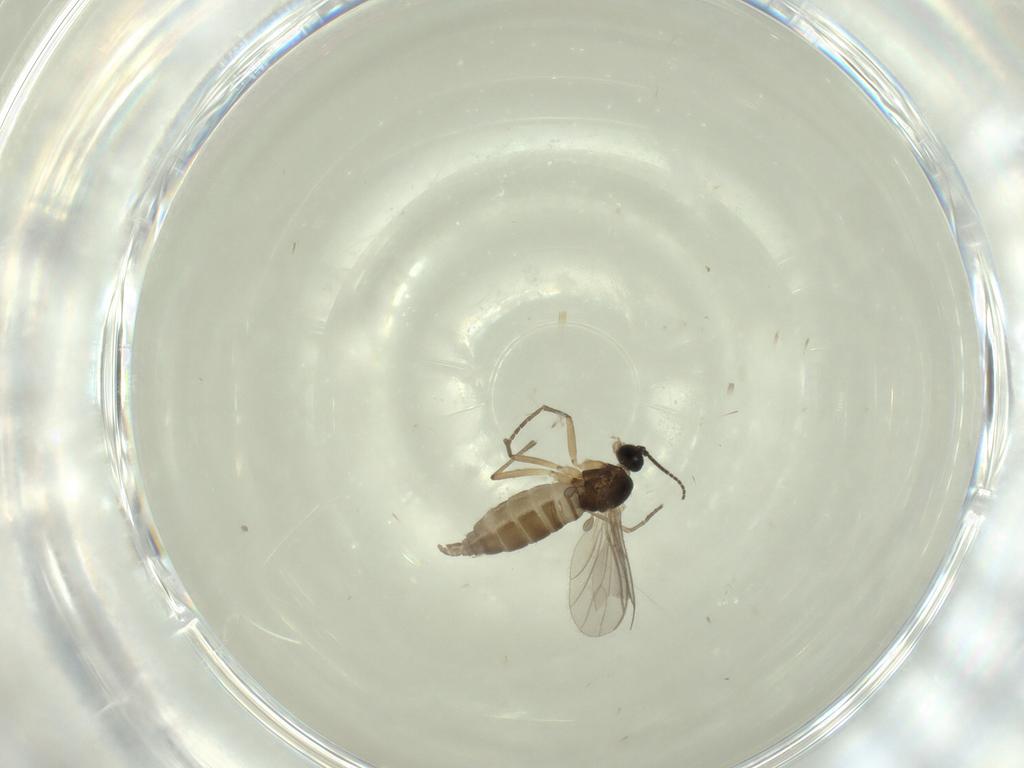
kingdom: Animalia
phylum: Arthropoda
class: Insecta
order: Diptera
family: Sciaridae
